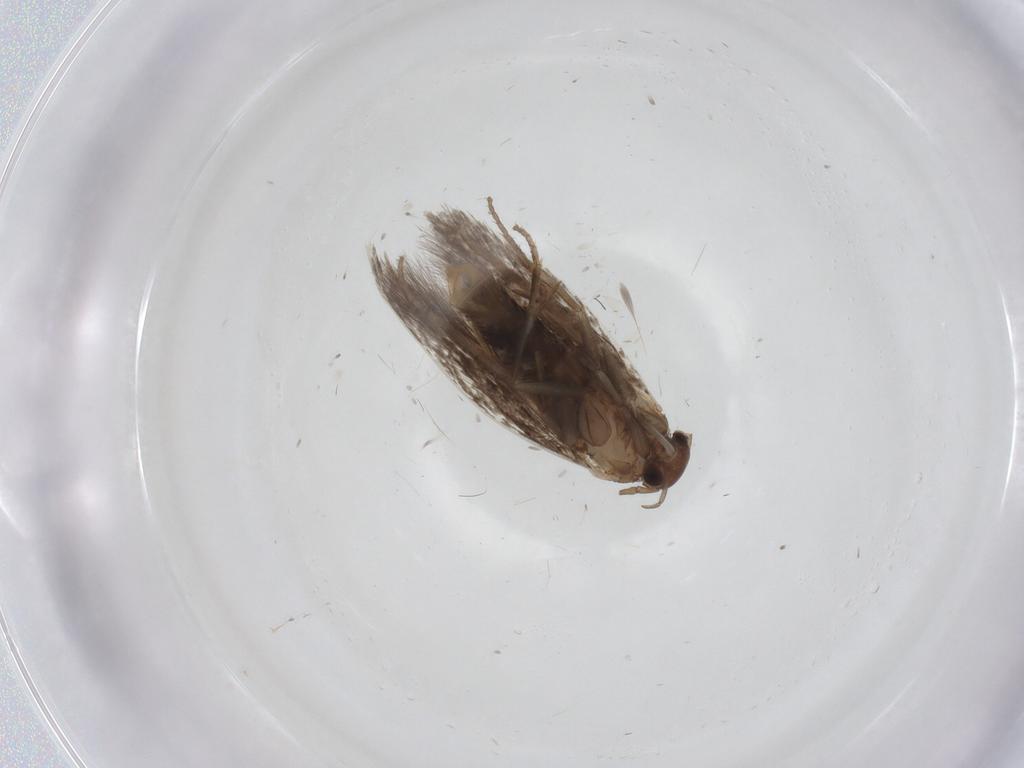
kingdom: Animalia
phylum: Arthropoda
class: Insecta
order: Lepidoptera
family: Elachistidae
